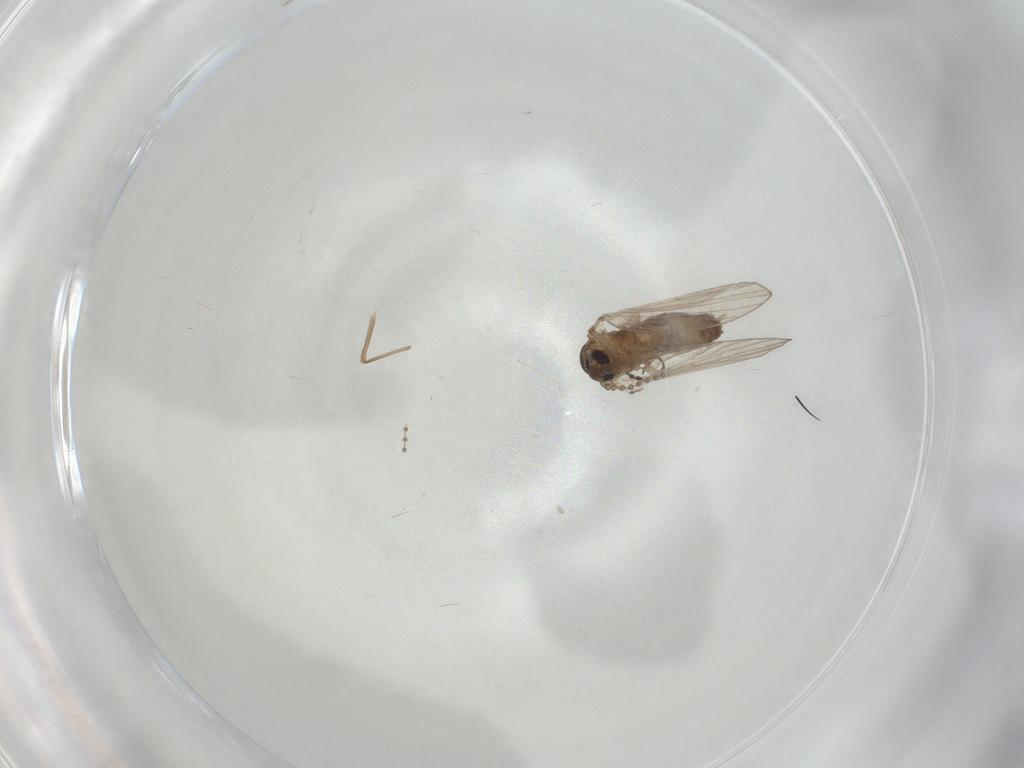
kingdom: Animalia
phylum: Arthropoda
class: Insecta
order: Diptera
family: Psychodidae
